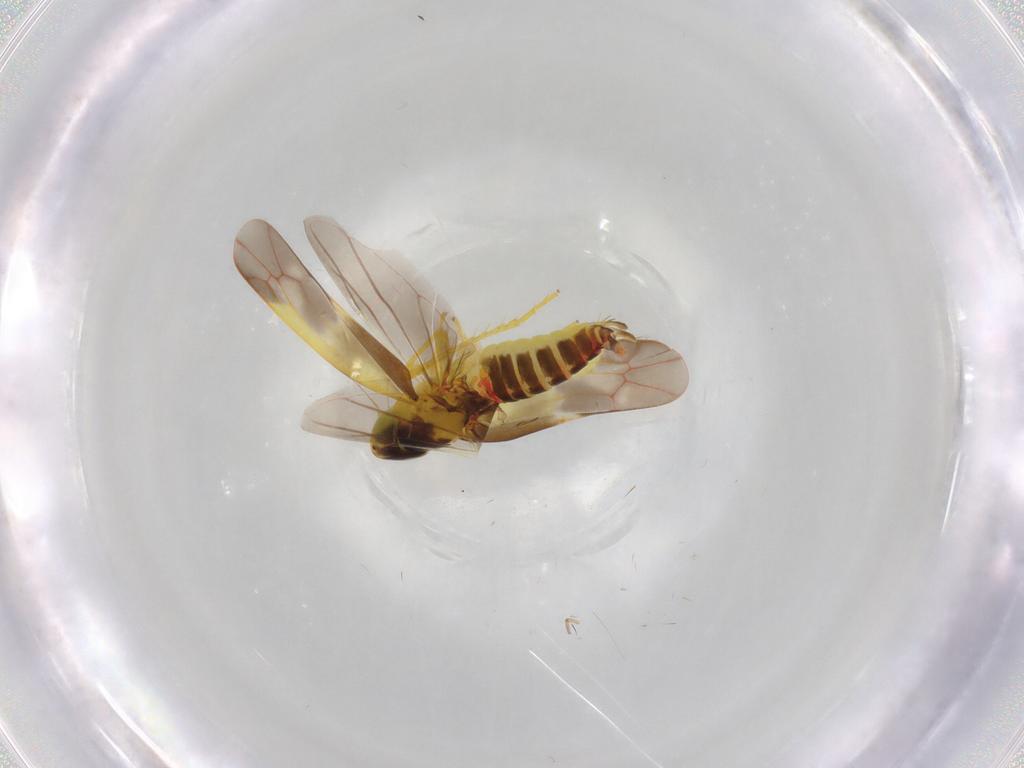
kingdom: Animalia
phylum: Arthropoda
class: Insecta
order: Hemiptera
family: Cicadellidae
